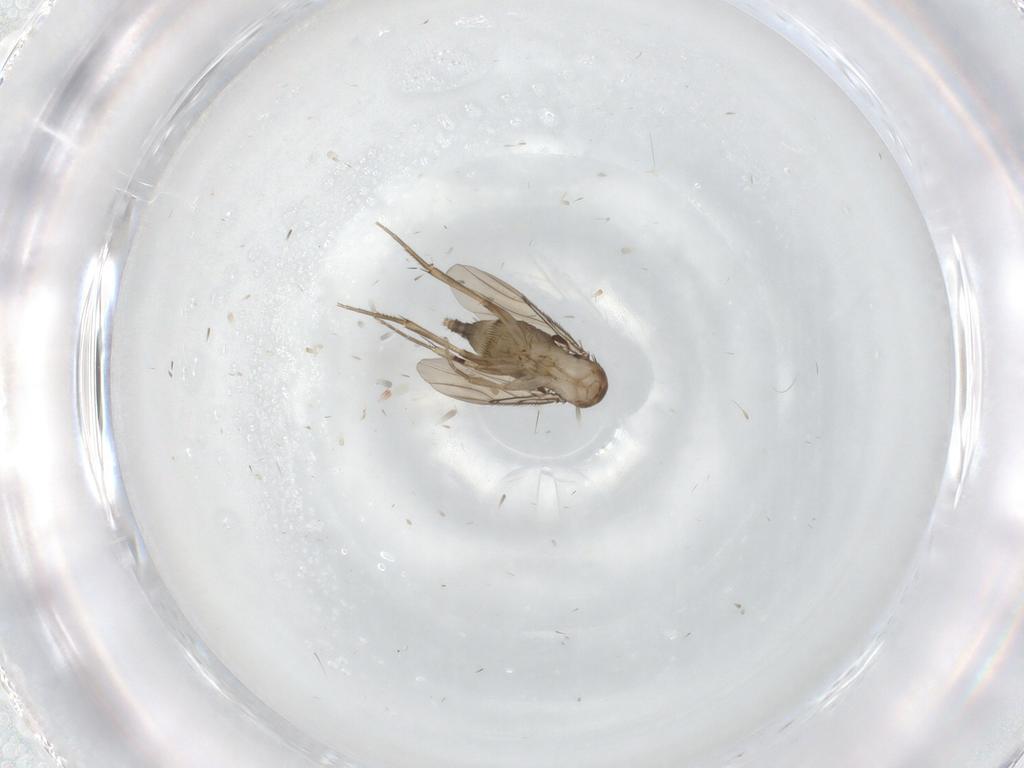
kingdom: Animalia
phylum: Arthropoda
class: Insecta
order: Diptera
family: Phoridae
